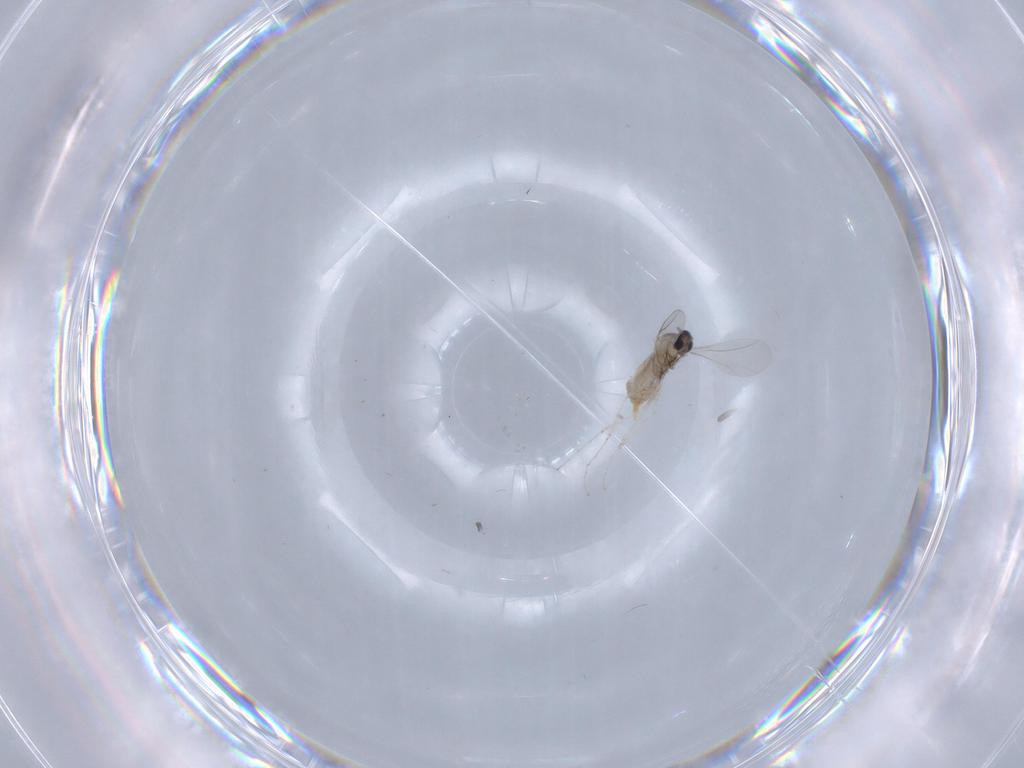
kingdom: Animalia
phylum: Arthropoda
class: Insecta
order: Diptera
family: Cecidomyiidae
